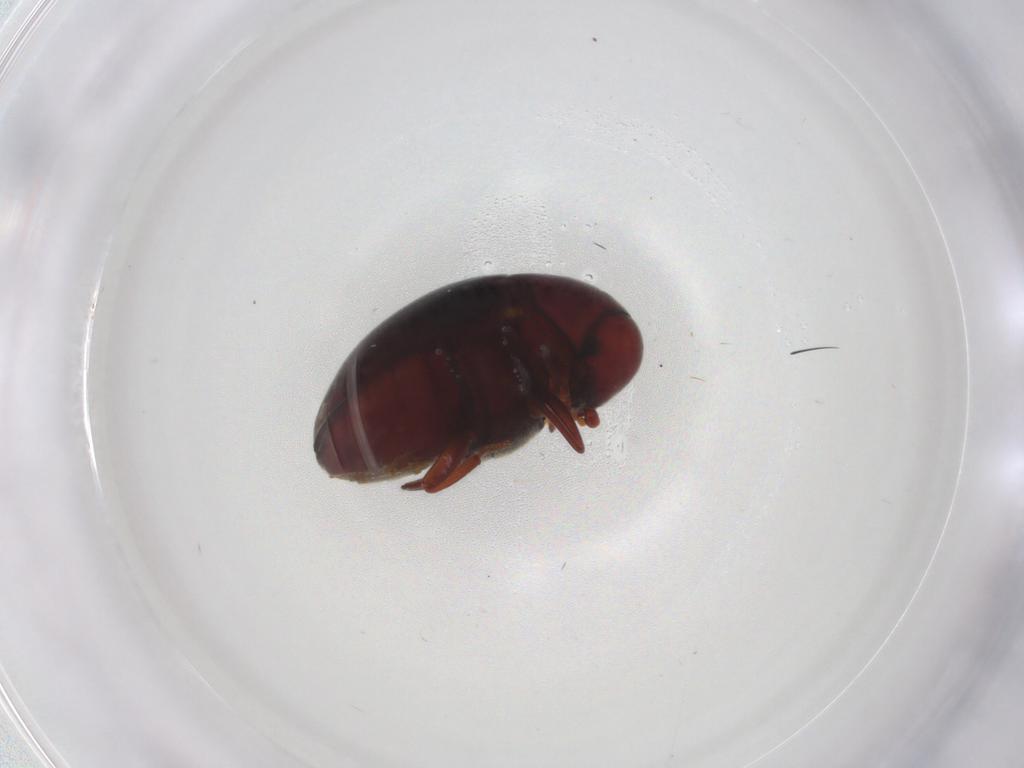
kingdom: Animalia
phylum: Arthropoda
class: Insecta
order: Coleoptera
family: Ptinidae
